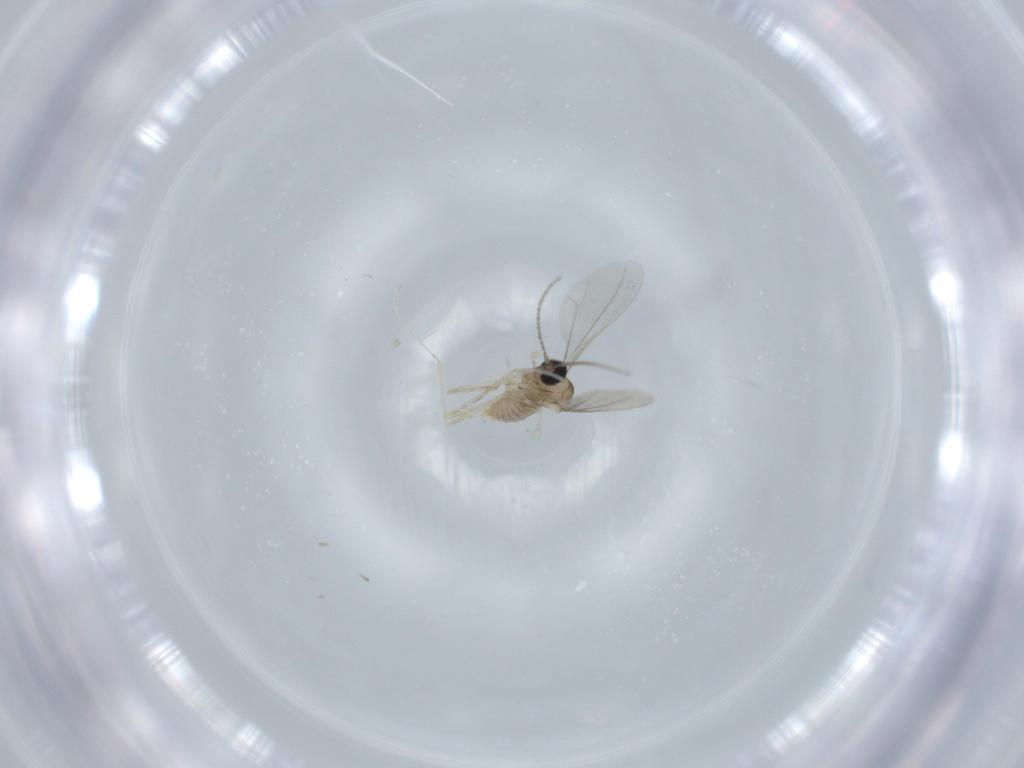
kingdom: Animalia
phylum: Arthropoda
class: Insecta
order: Diptera
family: Cecidomyiidae
